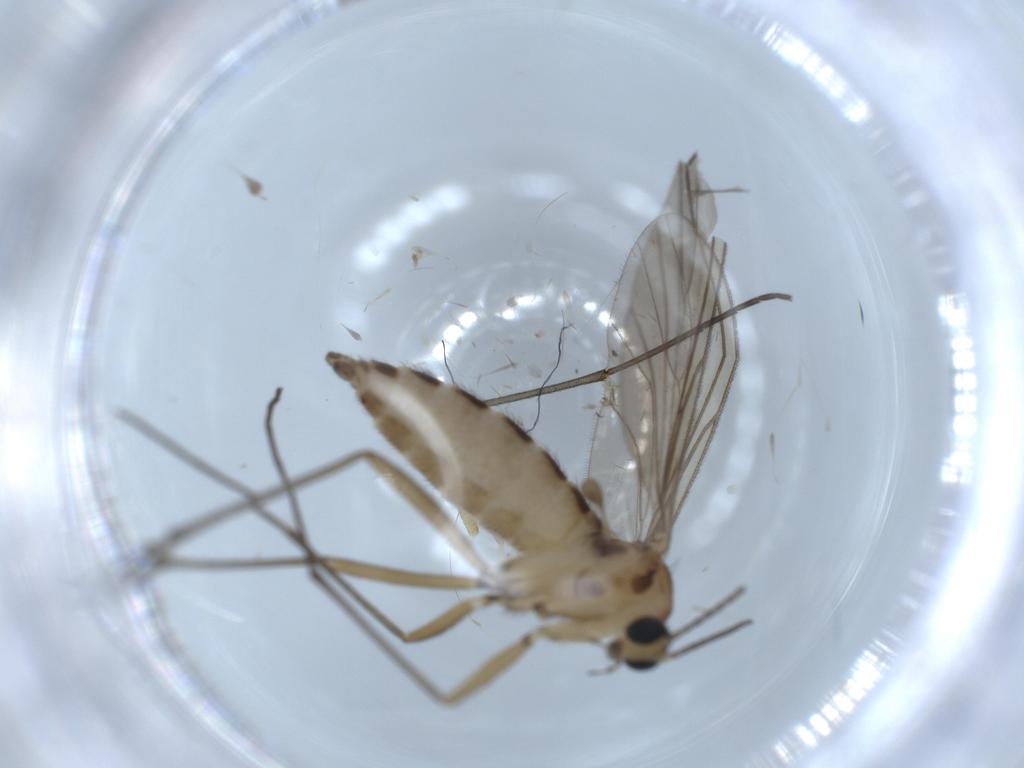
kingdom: Animalia
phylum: Arthropoda
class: Insecta
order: Diptera
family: Sciaridae
